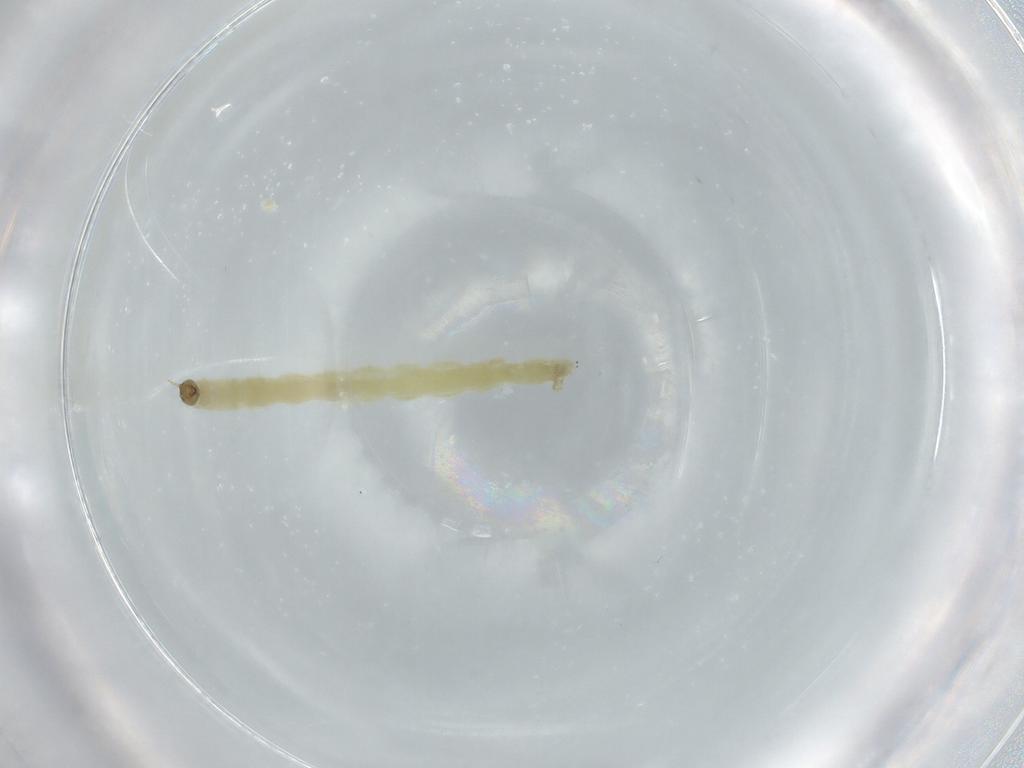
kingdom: Animalia
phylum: Arthropoda
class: Insecta
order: Diptera
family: Chironomidae
